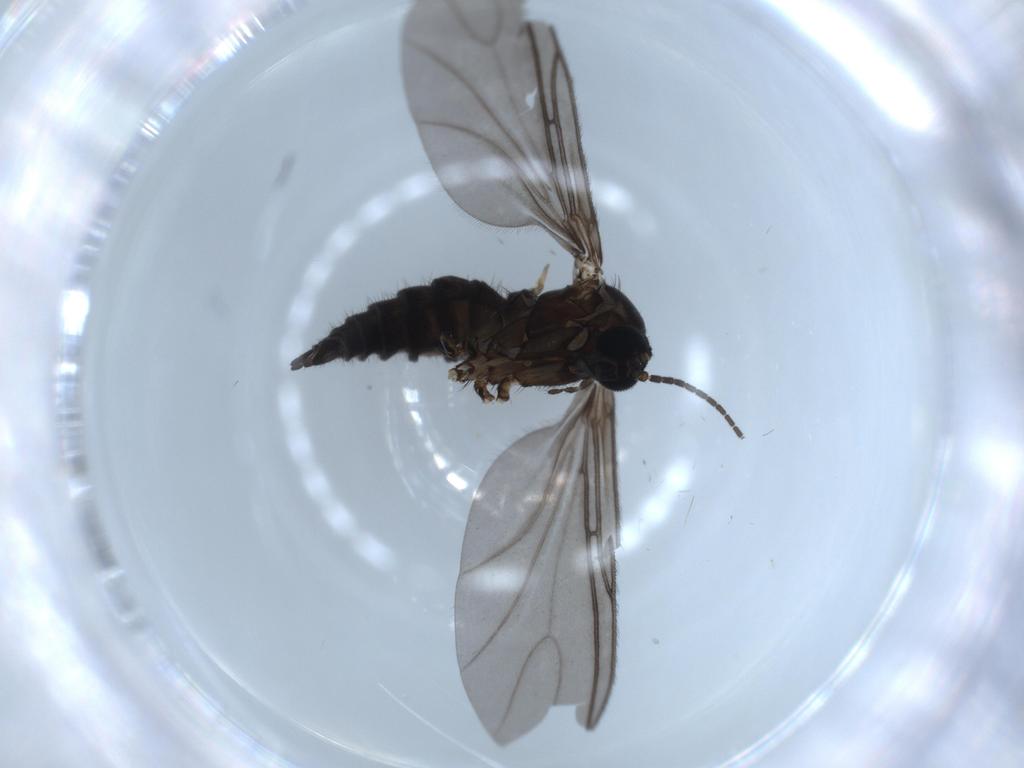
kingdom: Animalia
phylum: Arthropoda
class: Insecta
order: Diptera
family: Sciaridae
